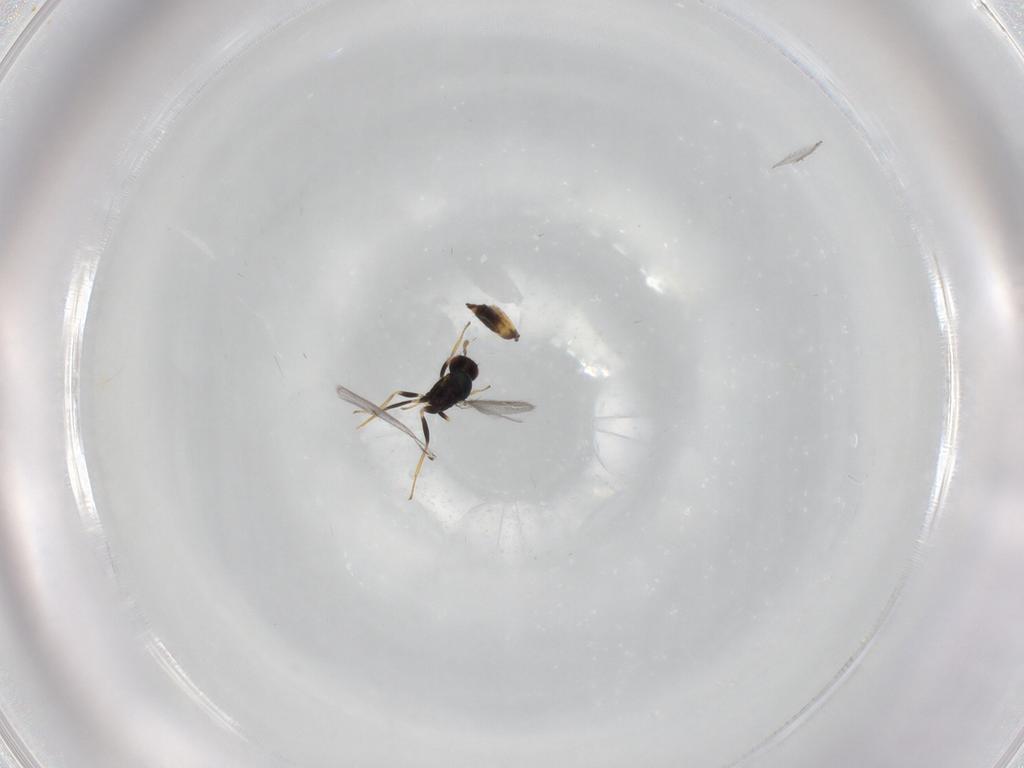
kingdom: Animalia
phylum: Arthropoda
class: Insecta
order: Hymenoptera
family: Eulophidae
